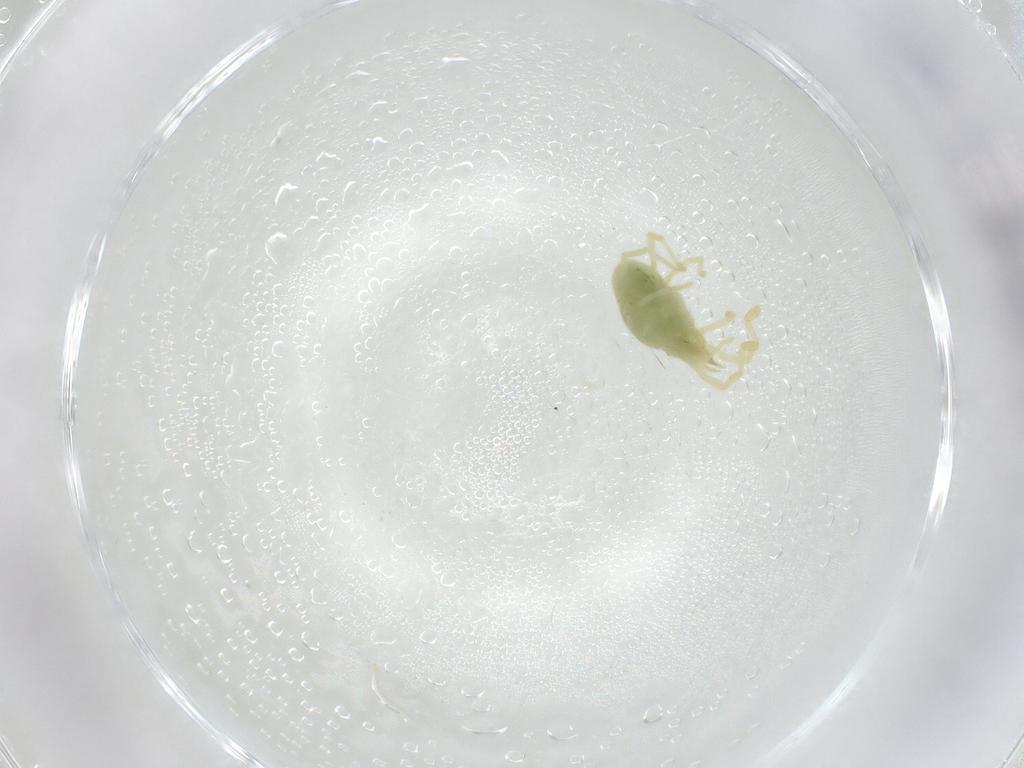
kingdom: Animalia
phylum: Arthropoda
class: Arachnida
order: Trombidiformes
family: Erythraeidae
